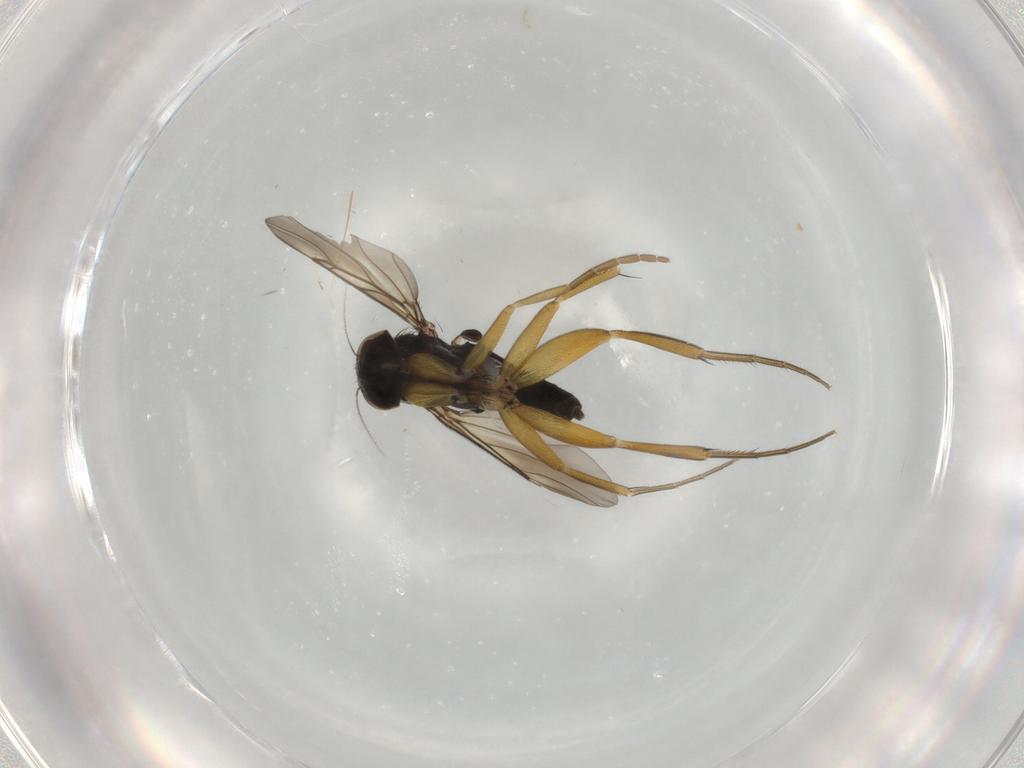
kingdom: Animalia
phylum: Arthropoda
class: Insecta
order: Diptera
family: Phoridae
